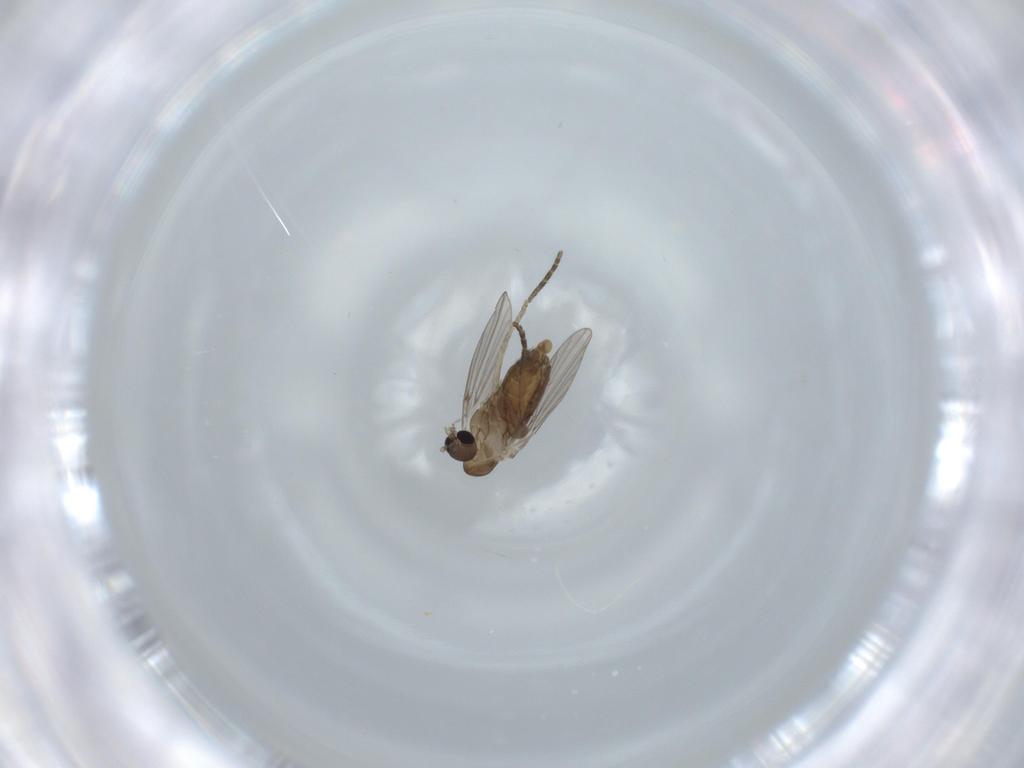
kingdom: Animalia
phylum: Arthropoda
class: Insecta
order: Diptera
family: Psychodidae
